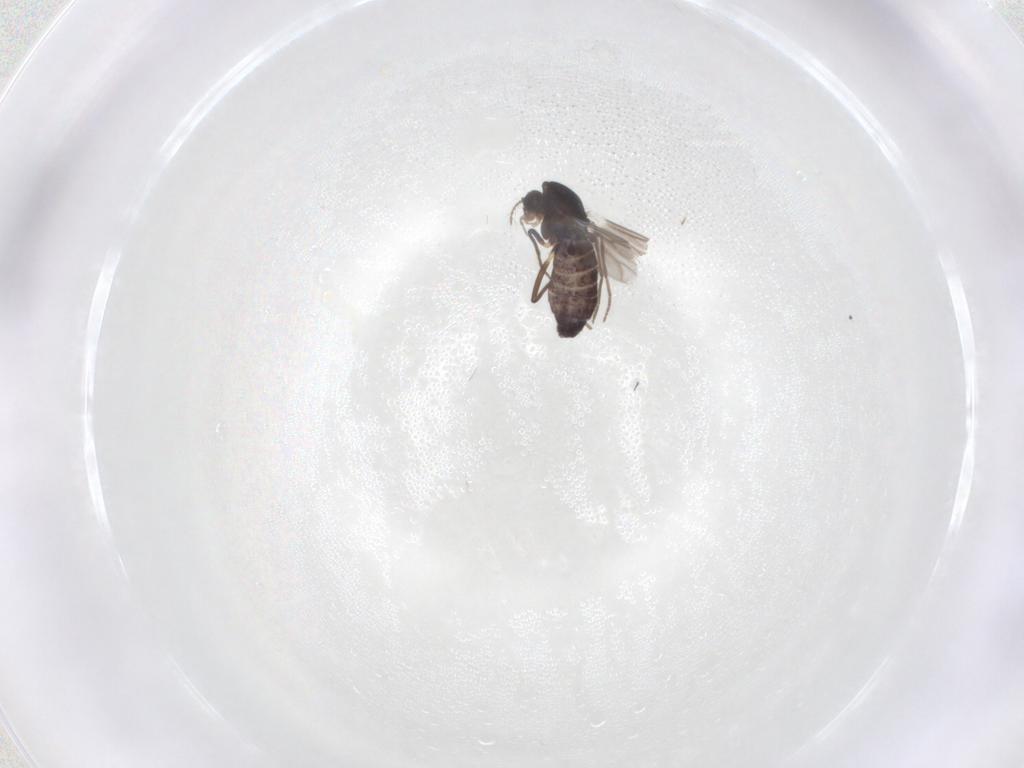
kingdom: Animalia
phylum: Arthropoda
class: Insecta
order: Diptera
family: Chironomidae
